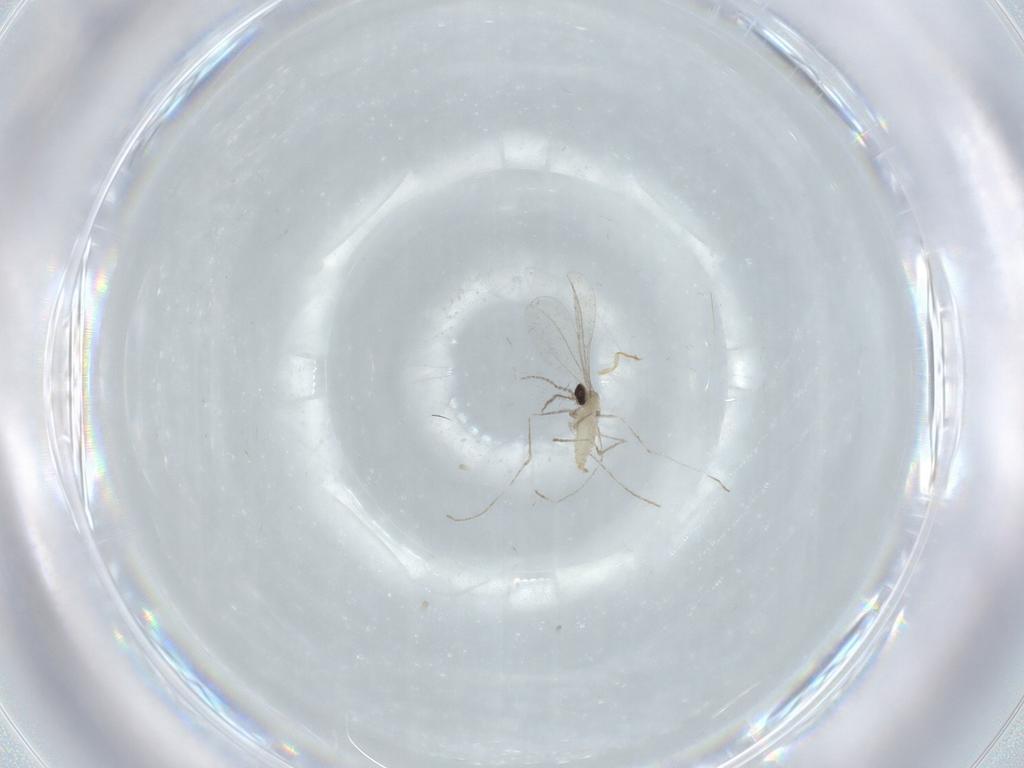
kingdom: Animalia
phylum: Arthropoda
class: Insecta
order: Diptera
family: Cecidomyiidae
